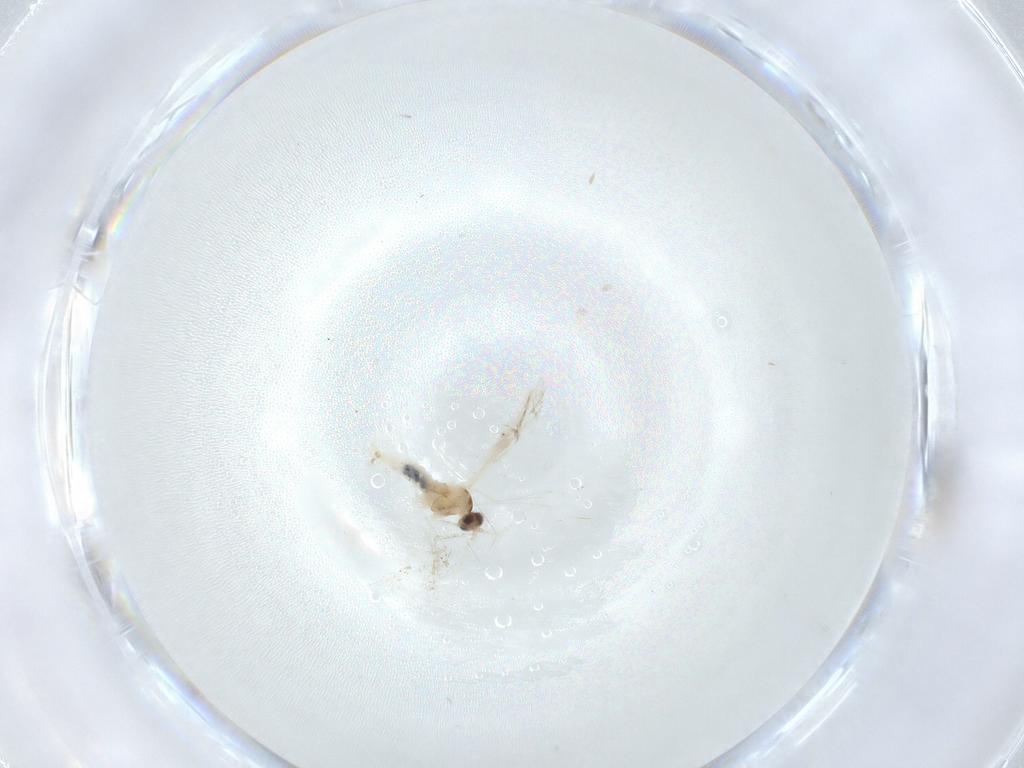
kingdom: Animalia
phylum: Arthropoda
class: Insecta
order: Diptera
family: Cecidomyiidae
